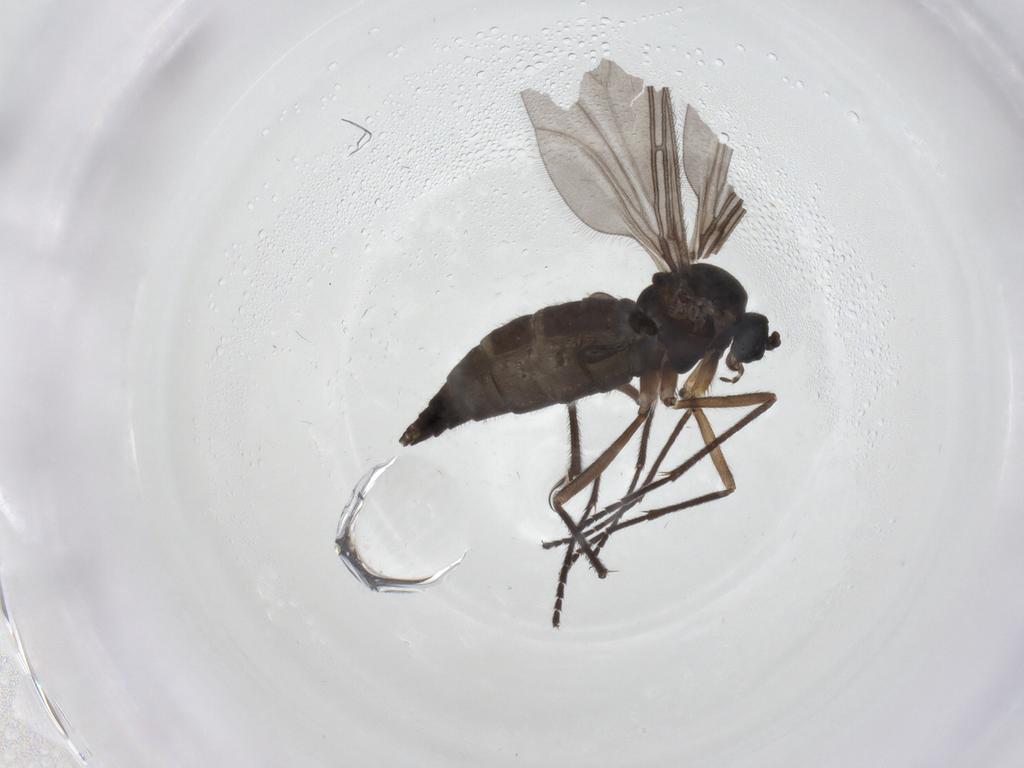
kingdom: Animalia
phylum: Arthropoda
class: Insecta
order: Diptera
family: Sciaridae
